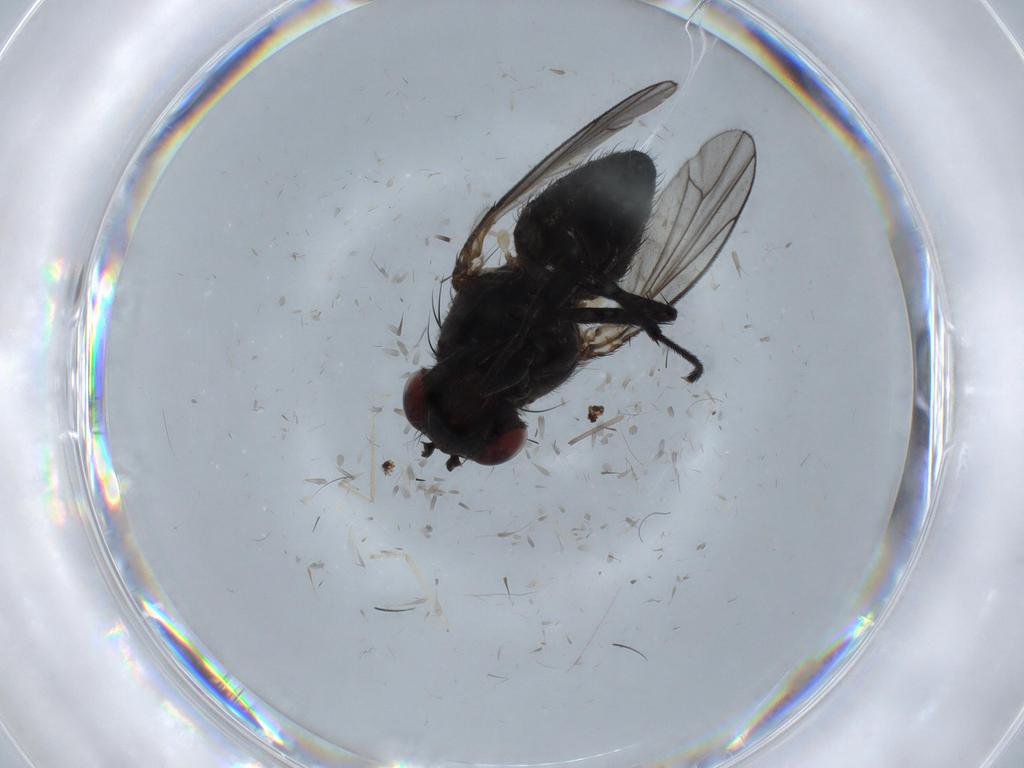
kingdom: Animalia
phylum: Arthropoda
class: Insecta
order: Diptera
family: Ephydridae
